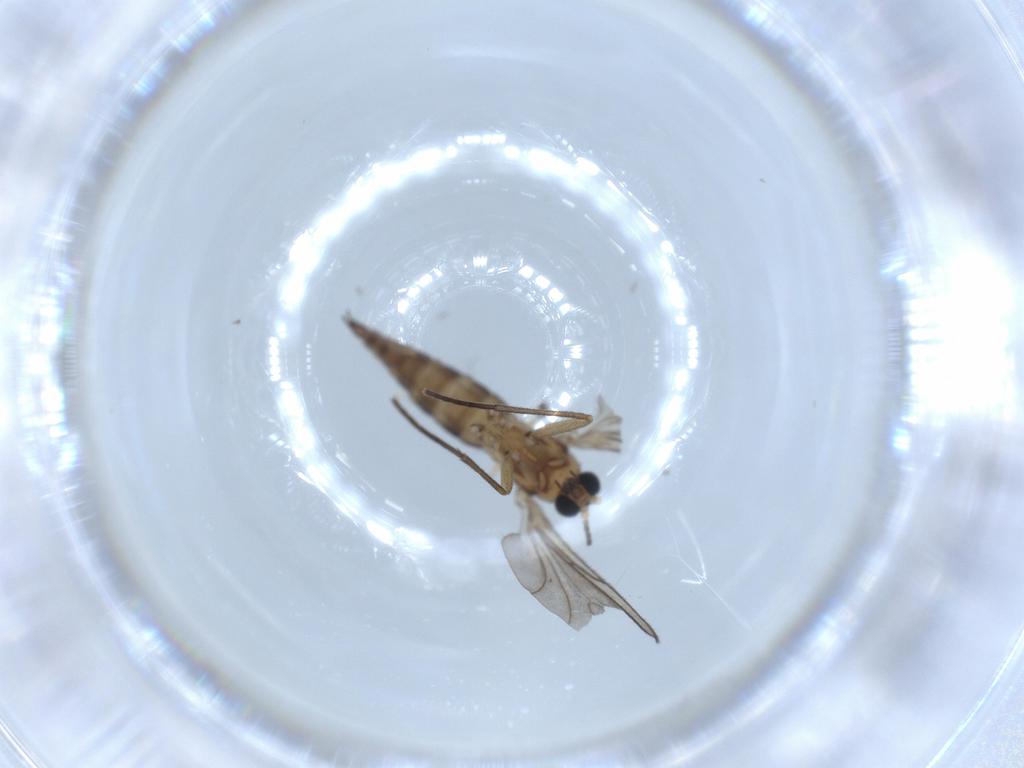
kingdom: Animalia
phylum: Arthropoda
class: Insecta
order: Diptera
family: Sciaridae
